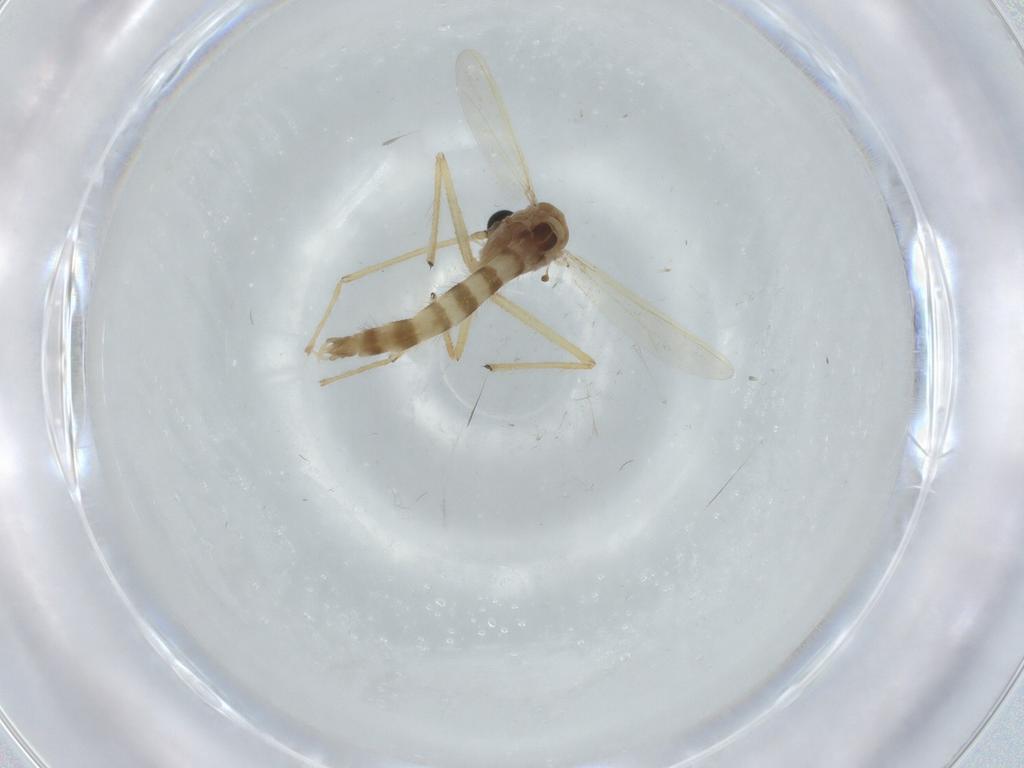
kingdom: Animalia
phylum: Arthropoda
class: Insecta
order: Diptera
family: Chironomidae
